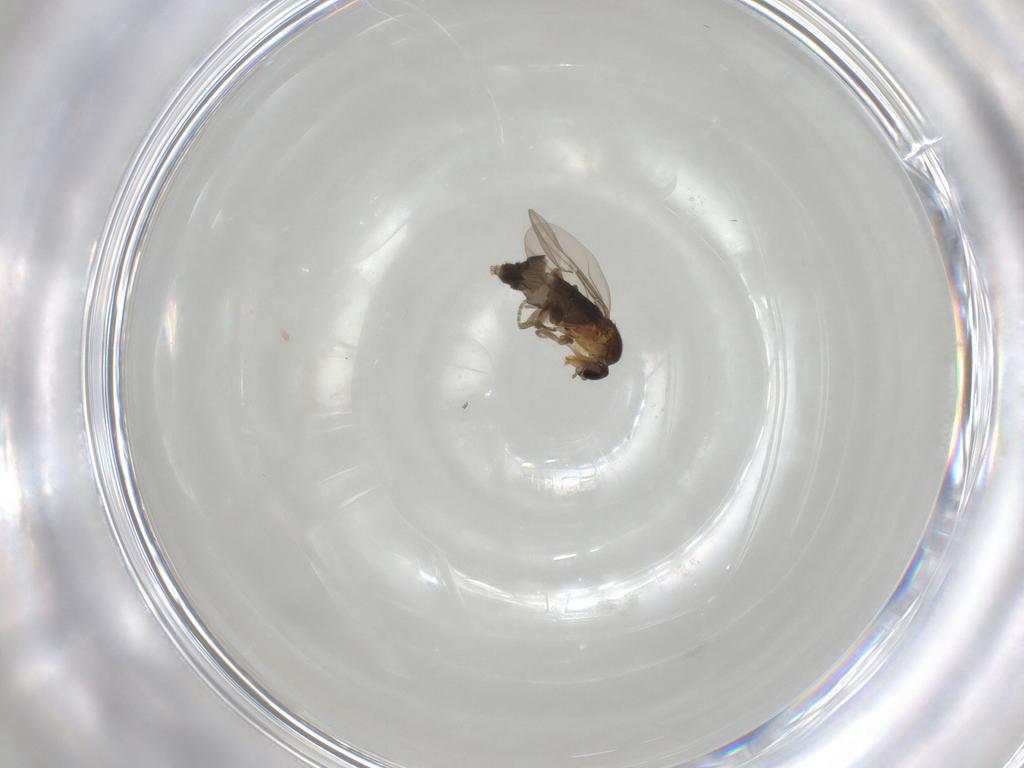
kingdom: Animalia
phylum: Arthropoda
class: Insecta
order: Diptera
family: Phoridae
